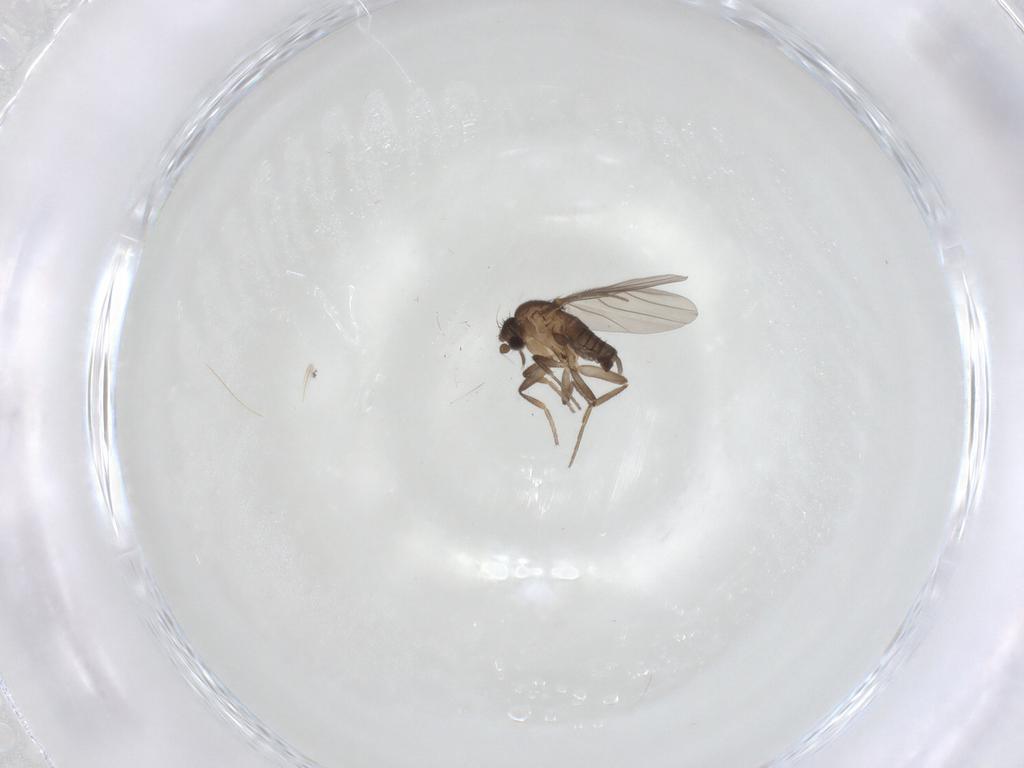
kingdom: Animalia
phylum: Arthropoda
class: Insecta
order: Diptera
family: Phoridae
